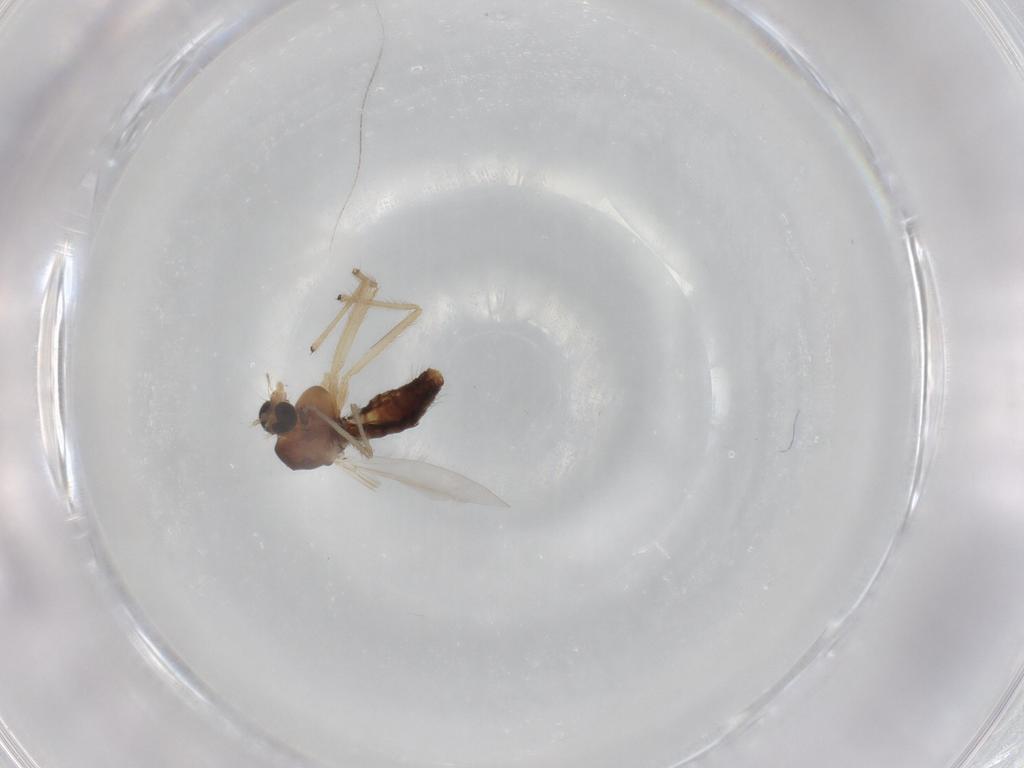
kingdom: Animalia
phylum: Arthropoda
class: Insecta
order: Diptera
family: Chironomidae
